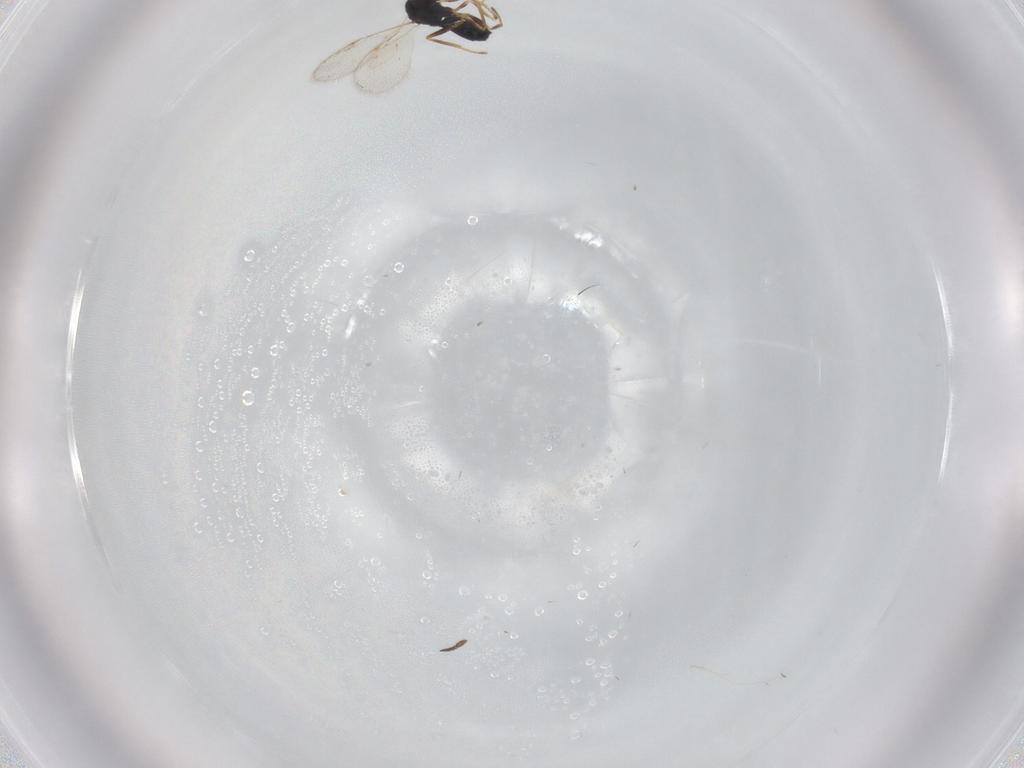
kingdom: Animalia
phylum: Arthropoda
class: Insecta
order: Hymenoptera
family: Chalcidoidea_incertae_sedis
